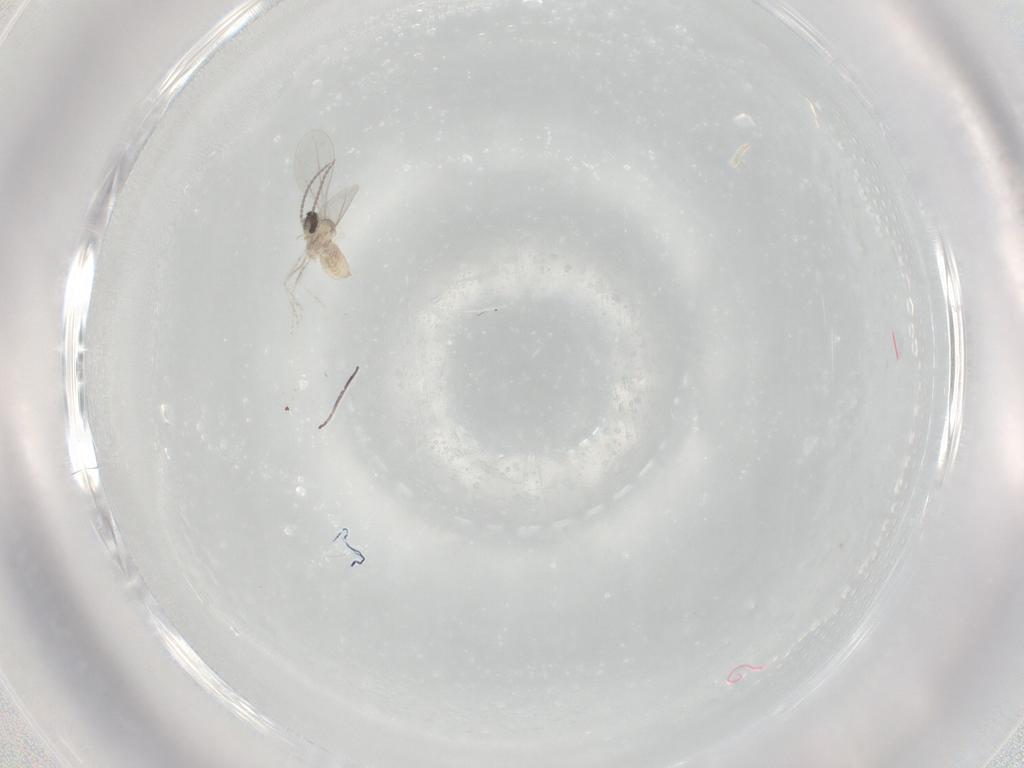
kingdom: Animalia
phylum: Arthropoda
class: Insecta
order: Diptera
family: Cecidomyiidae
